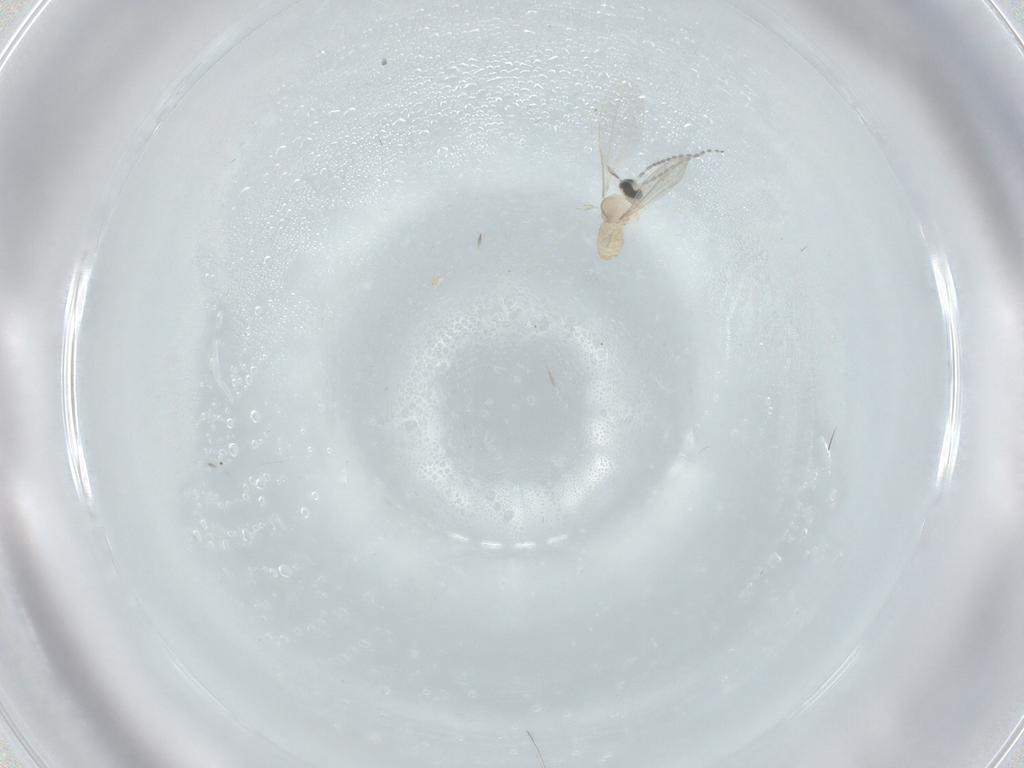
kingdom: Animalia
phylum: Arthropoda
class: Insecta
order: Diptera
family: Cecidomyiidae
